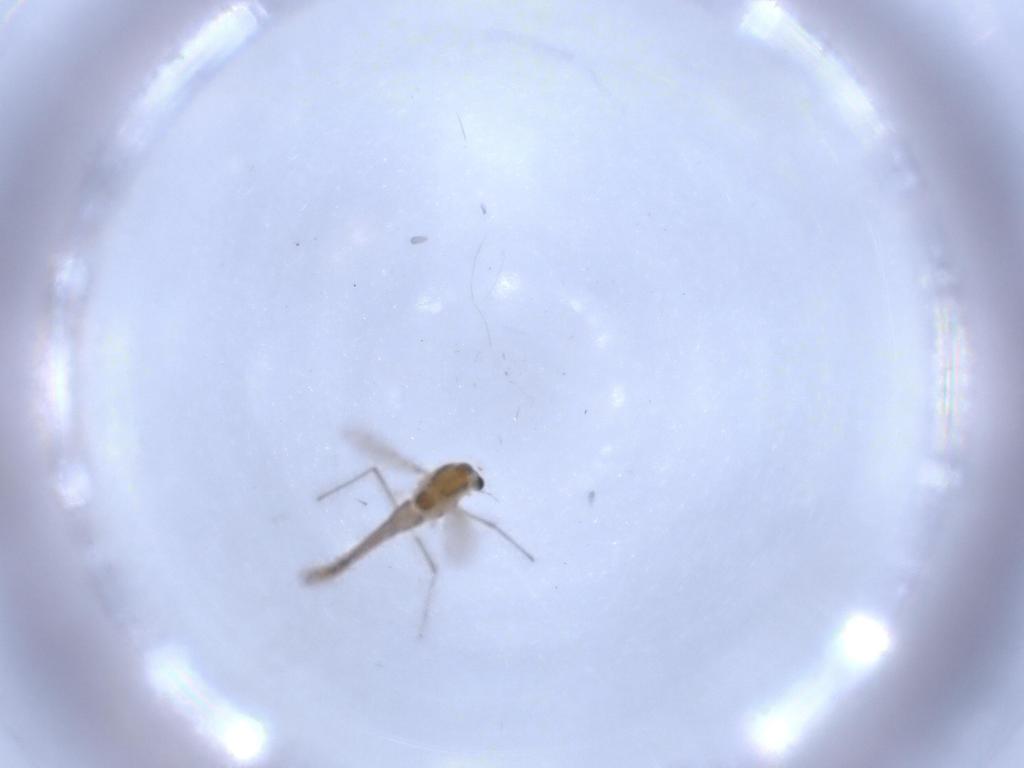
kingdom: Animalia
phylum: Arthropoda
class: Insecta
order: Diptera
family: Chironomidae
